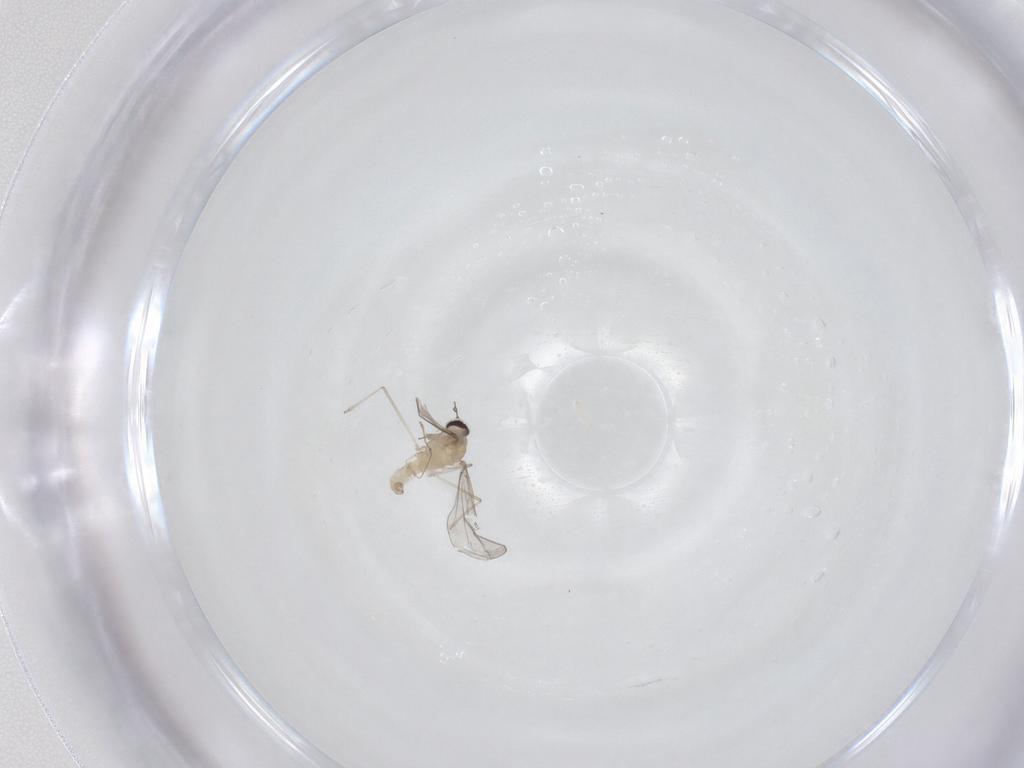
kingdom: Animalia
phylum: Arthropoda
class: Insecta
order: Diptera
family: Cecidomyiidae
